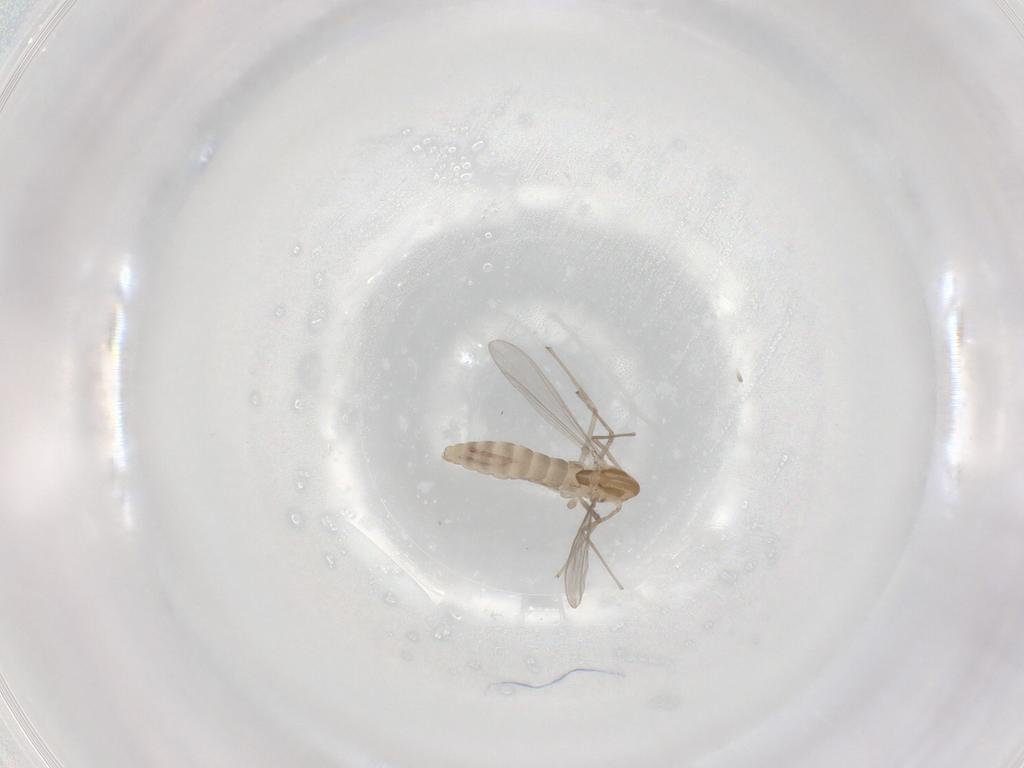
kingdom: Animalia
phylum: Arthropoda
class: Insecta
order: Diptera
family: Chironomidae
